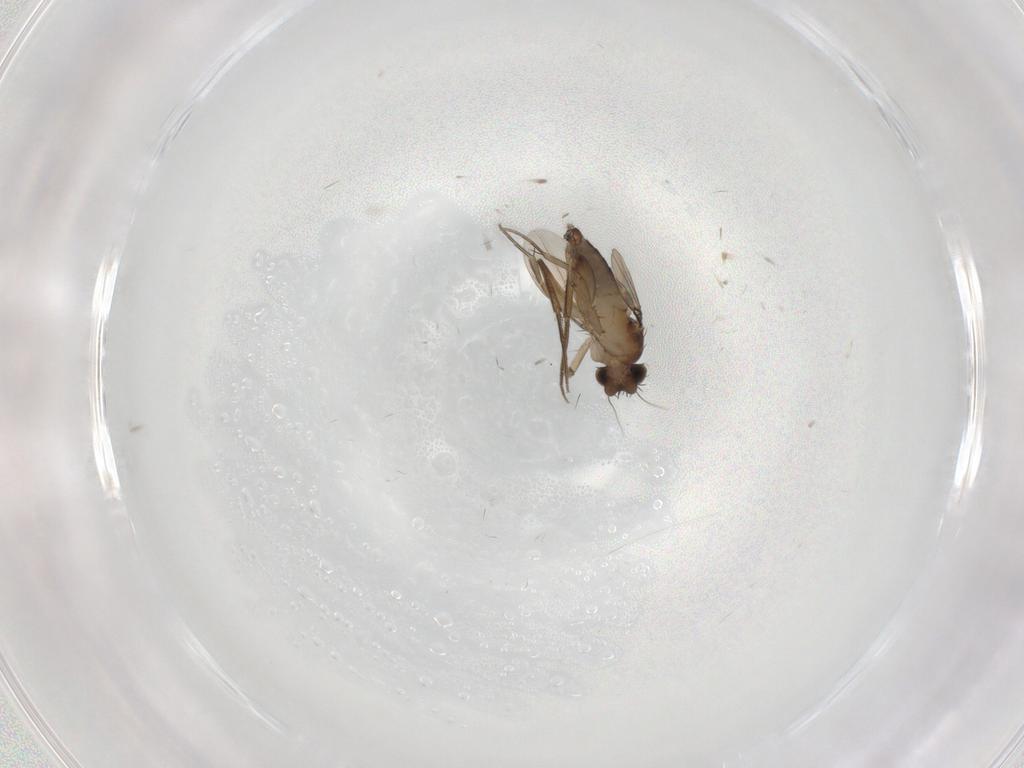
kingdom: Animalia
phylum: Arthropoda
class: Insecta
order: Diptera
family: Phoridae
